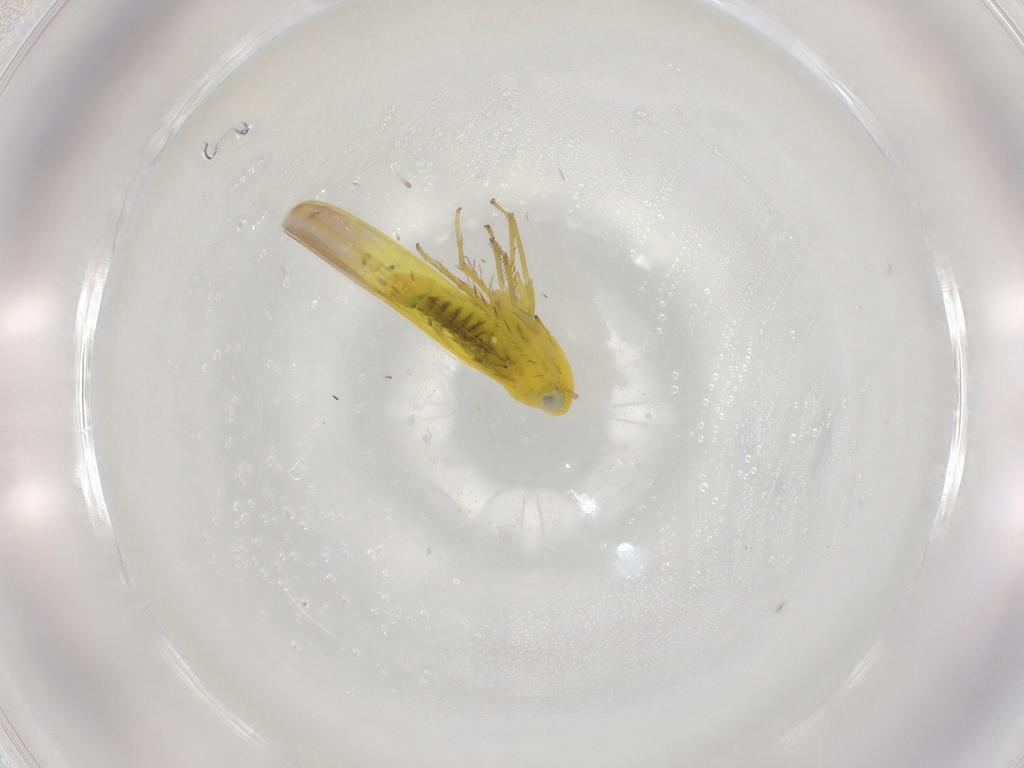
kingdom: Animalia
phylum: Arthropoda
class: Insecta
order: Hemiptera
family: Cicadellidae
